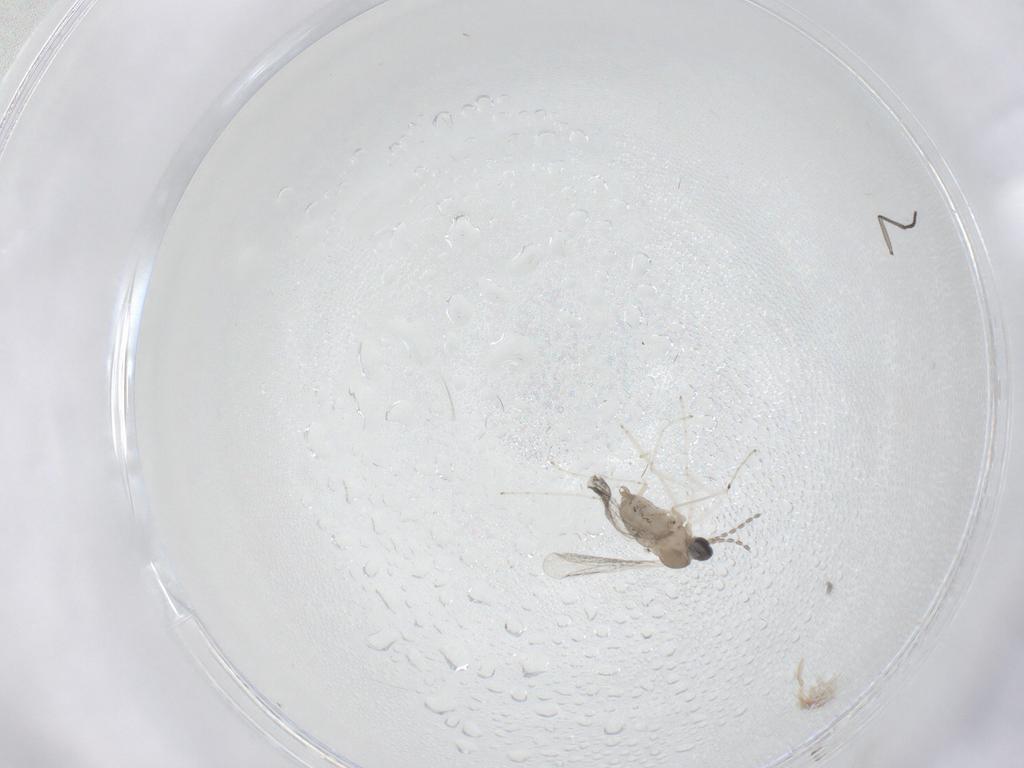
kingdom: Animalia
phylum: Arthropoda
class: Insecta
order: Diptera
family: Cecidomyiidae
